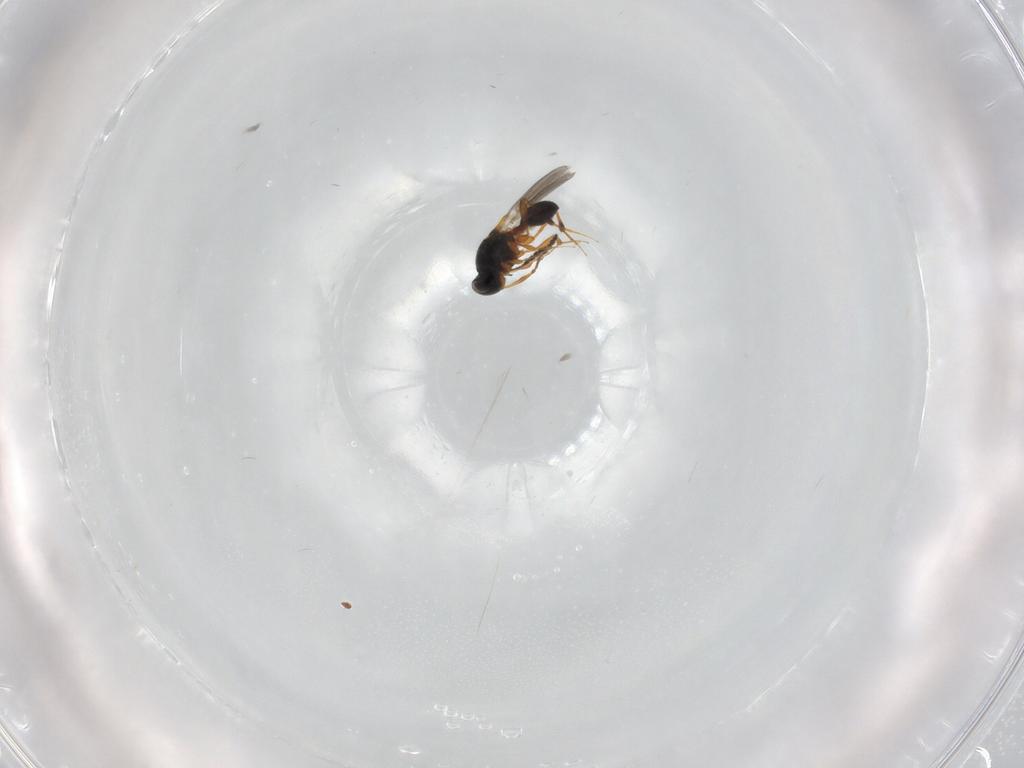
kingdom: Animalia
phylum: Arthropoda
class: Insecta
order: Hymenoptera
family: Platygastridae
